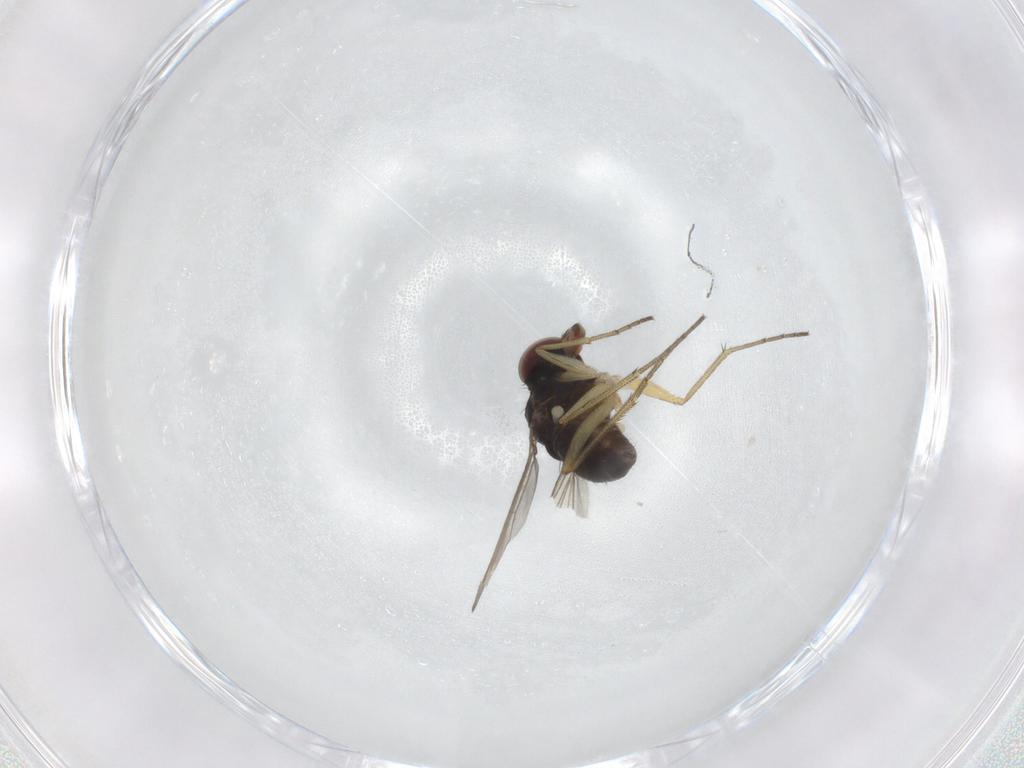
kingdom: Animalia
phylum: Arthropoda
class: Insecta
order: Diptera
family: Dolichopodidae
